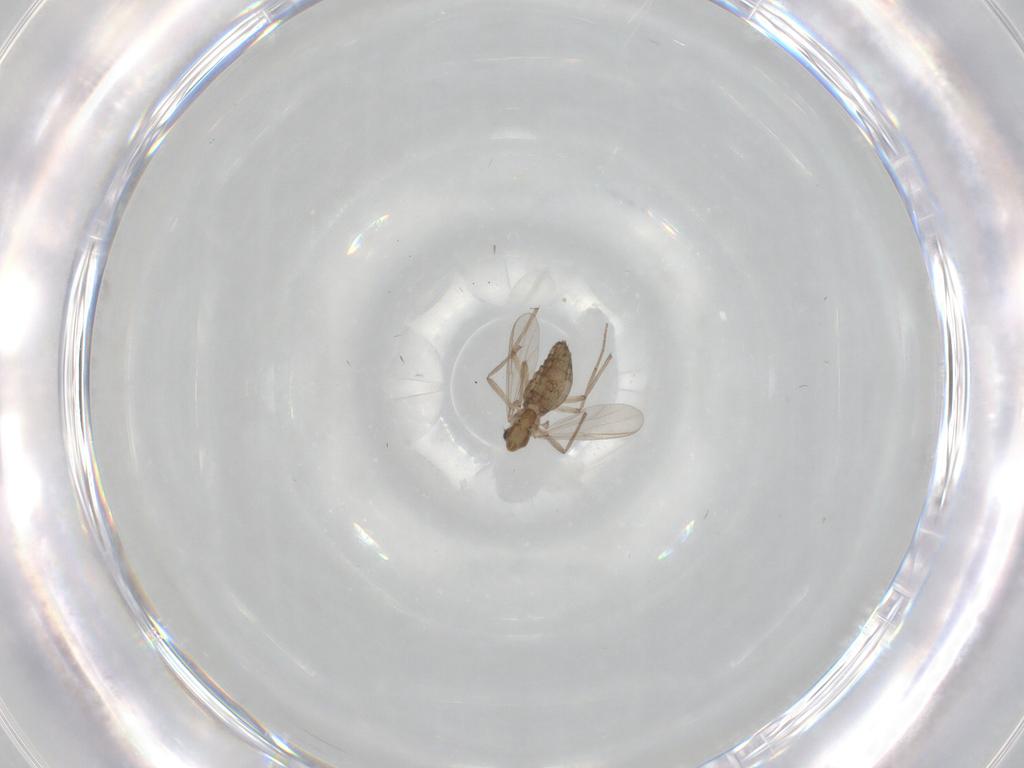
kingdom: Animalia
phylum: Arthropoda
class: Insecta
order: Diptera
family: Chironomidae
